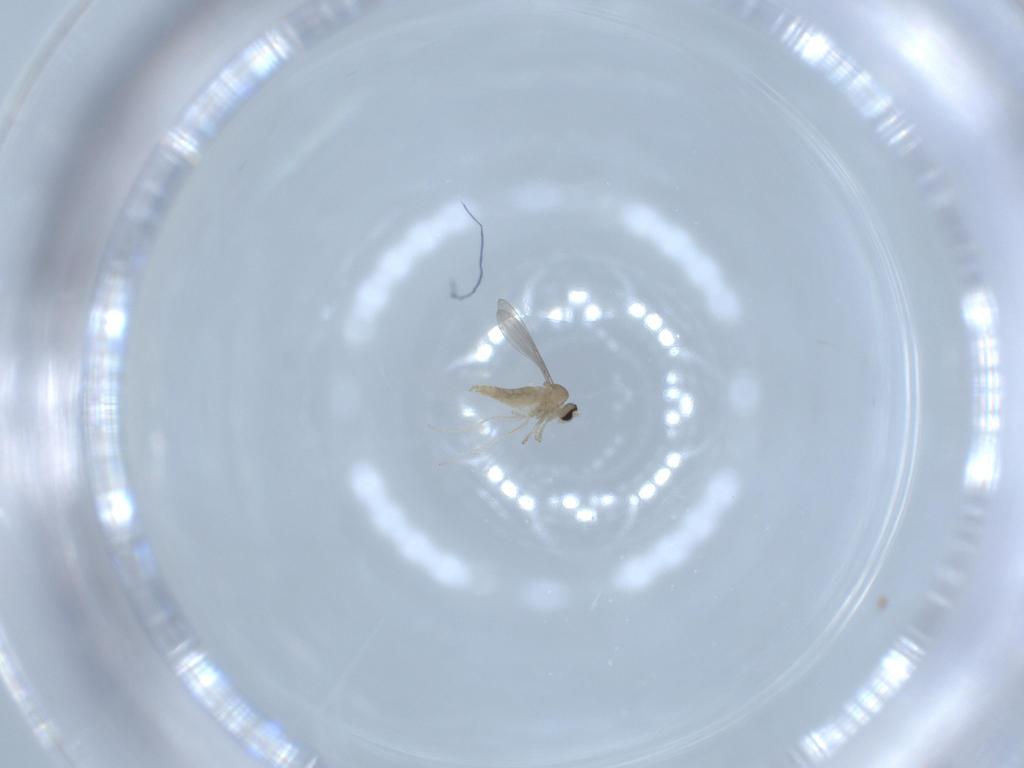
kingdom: Animalia
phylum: Arthropoda
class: Insecta
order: Diptera
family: Cecidomyiidae
